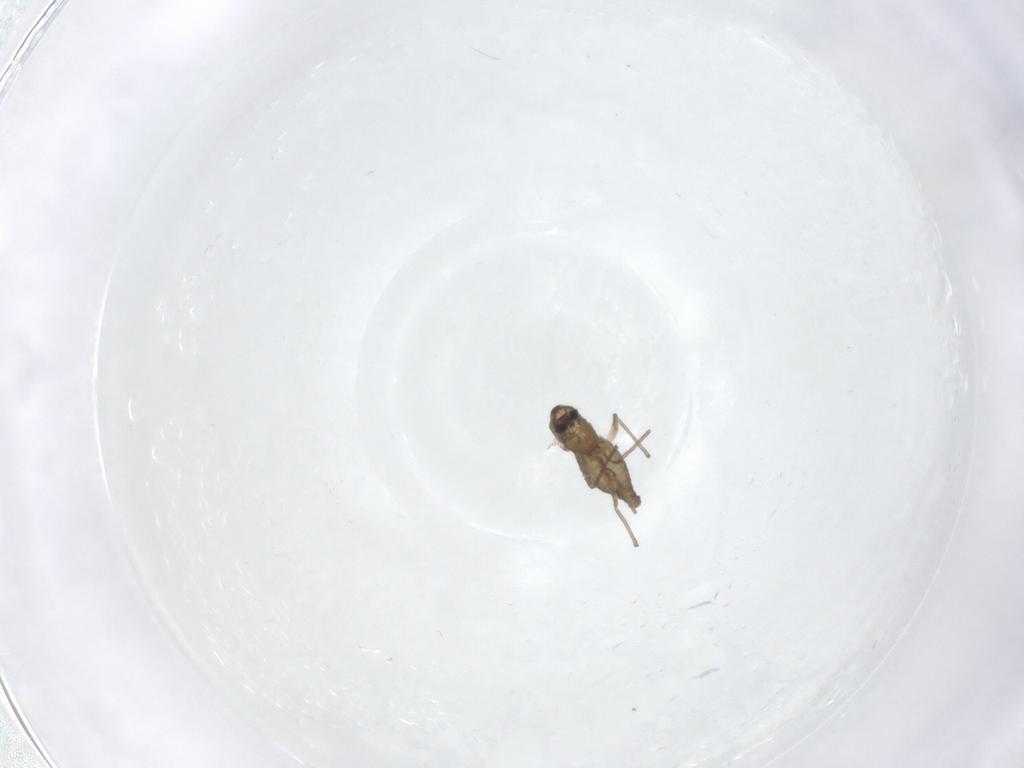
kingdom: Animalia
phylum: Arthropoda
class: Insecta
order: Diptera
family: Chironomidae
